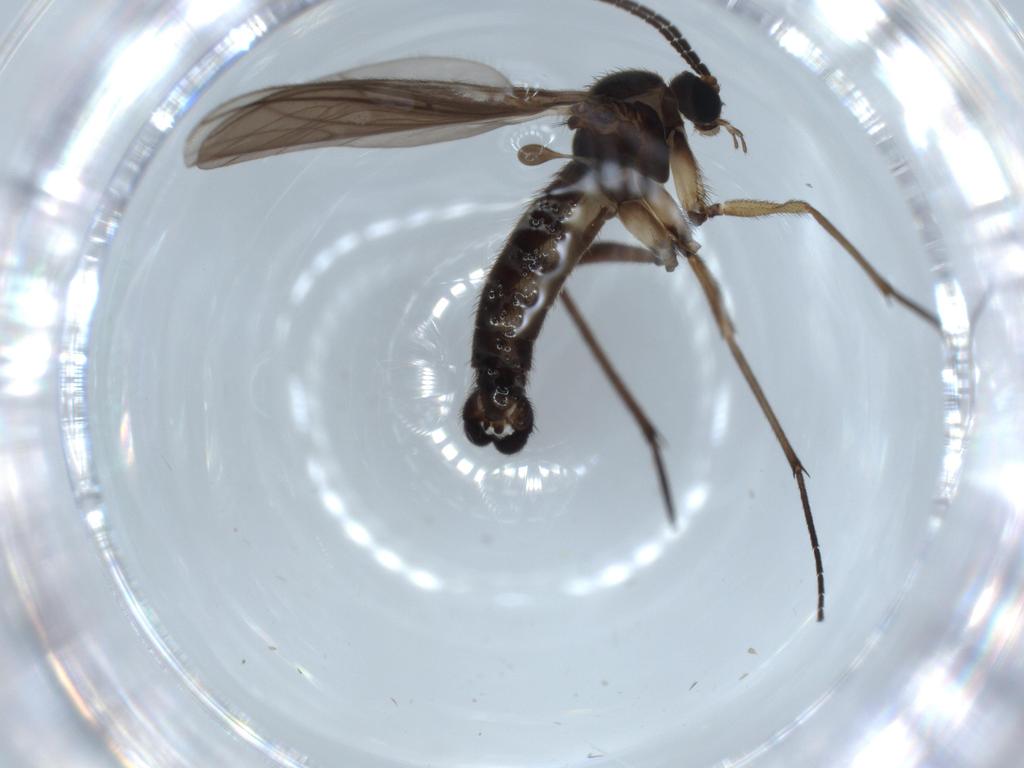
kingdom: Animalia
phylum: Arthropoda
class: Insecta
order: Diptera
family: Sciaridae
